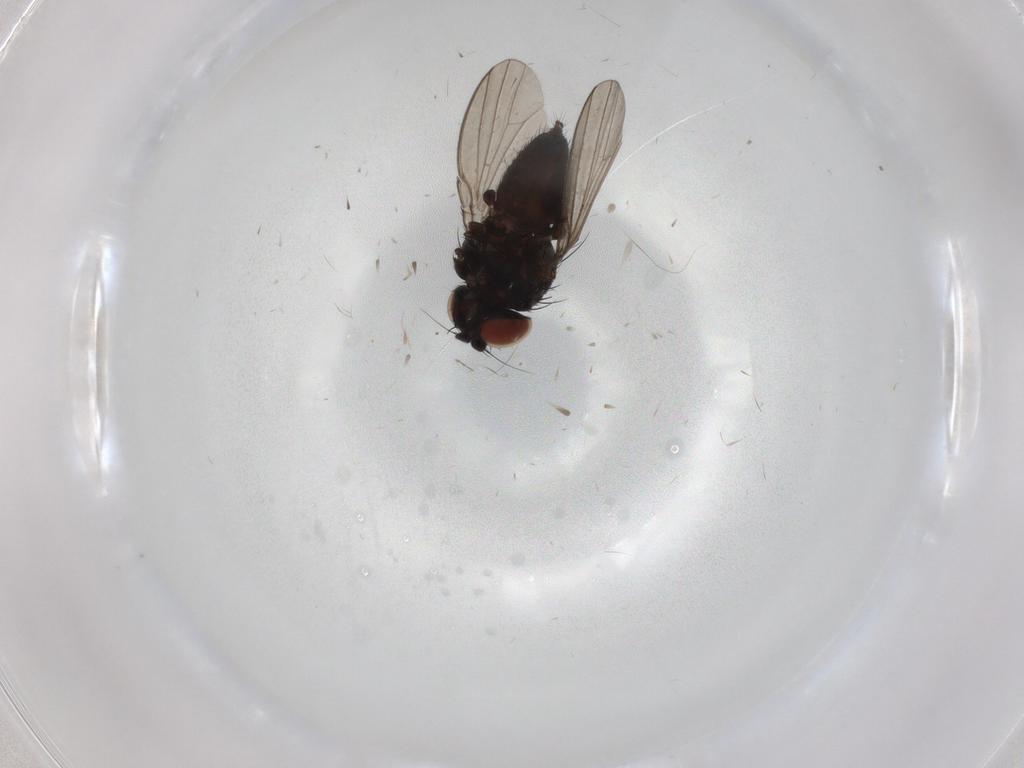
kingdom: Animalia
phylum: Arthropoda
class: Insecta
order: Diptera
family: Milichiidae
